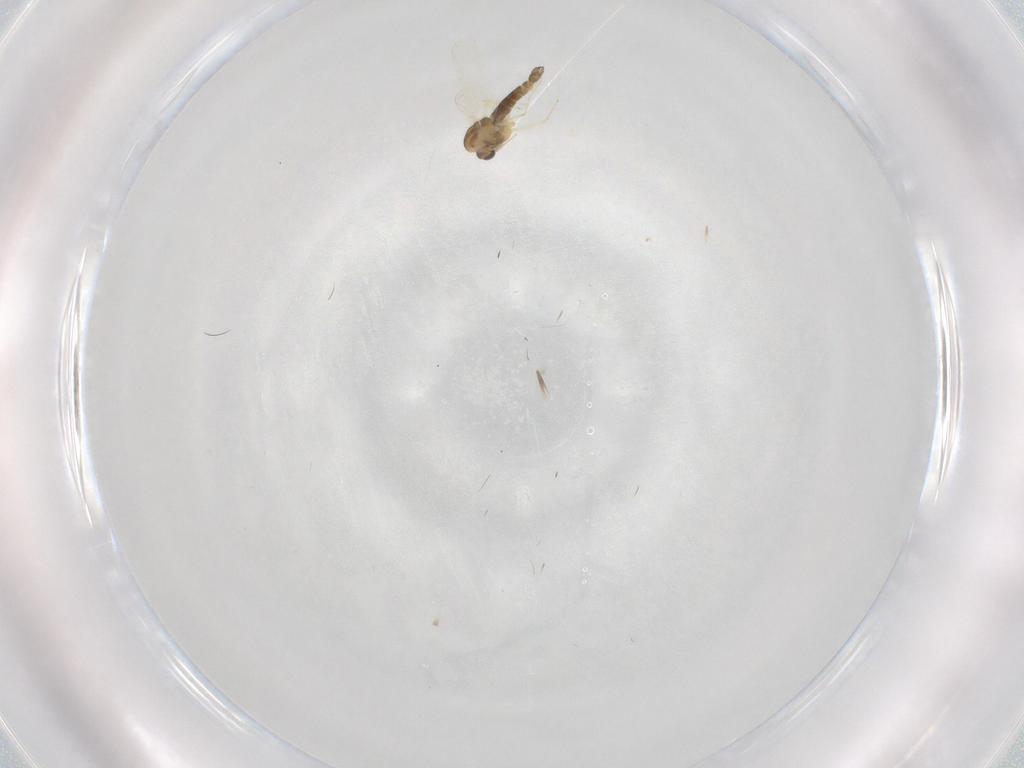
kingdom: Animalia
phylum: Arthropoda
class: Insecta
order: Diptera
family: Chironomidae
